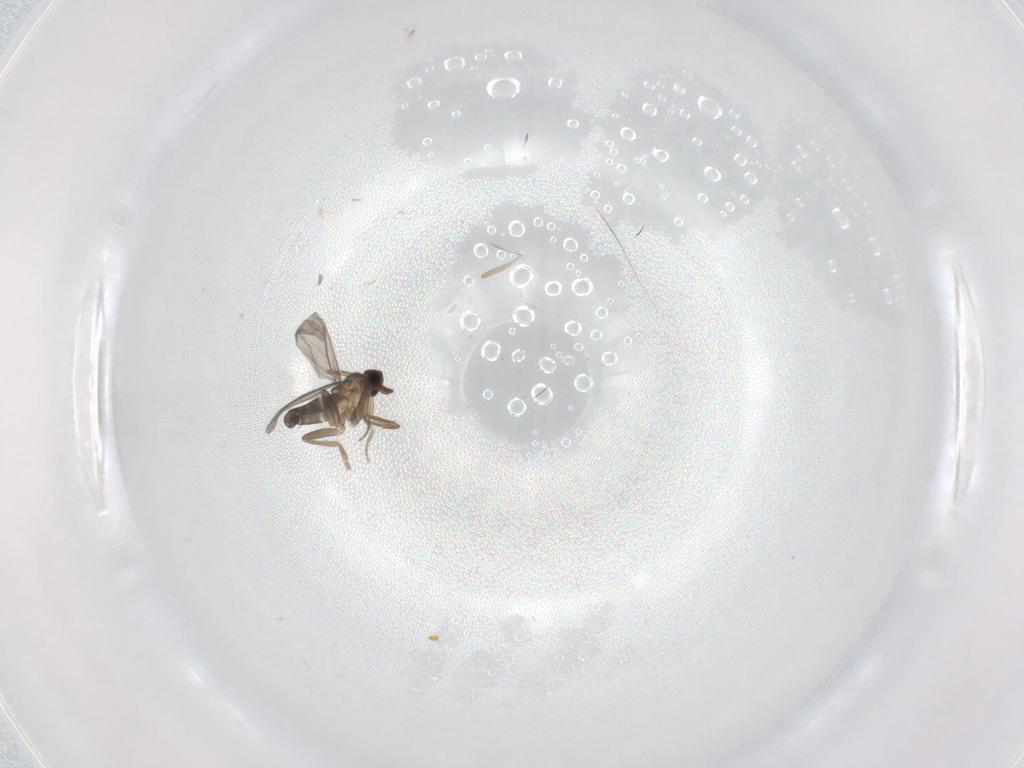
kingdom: Animalia
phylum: Arthropoda
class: Insecta
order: Diptera
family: Chironomidae
